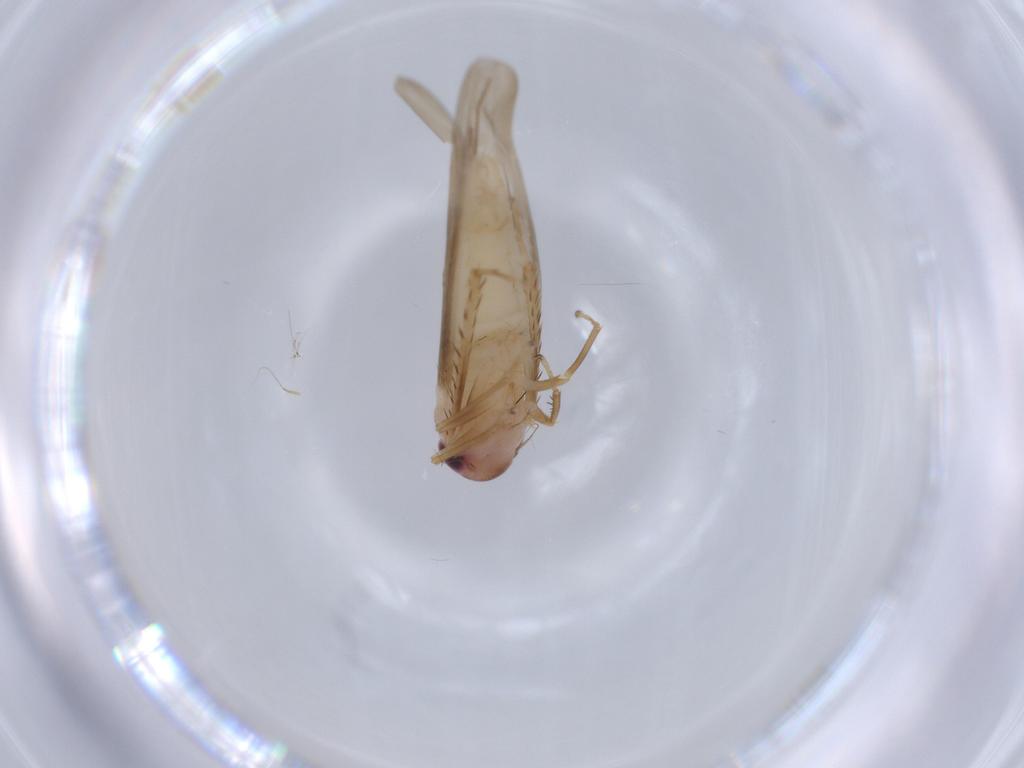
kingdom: Animalia
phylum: Arthropoda
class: Insecta
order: Hemiptera
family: Cicadellidae
